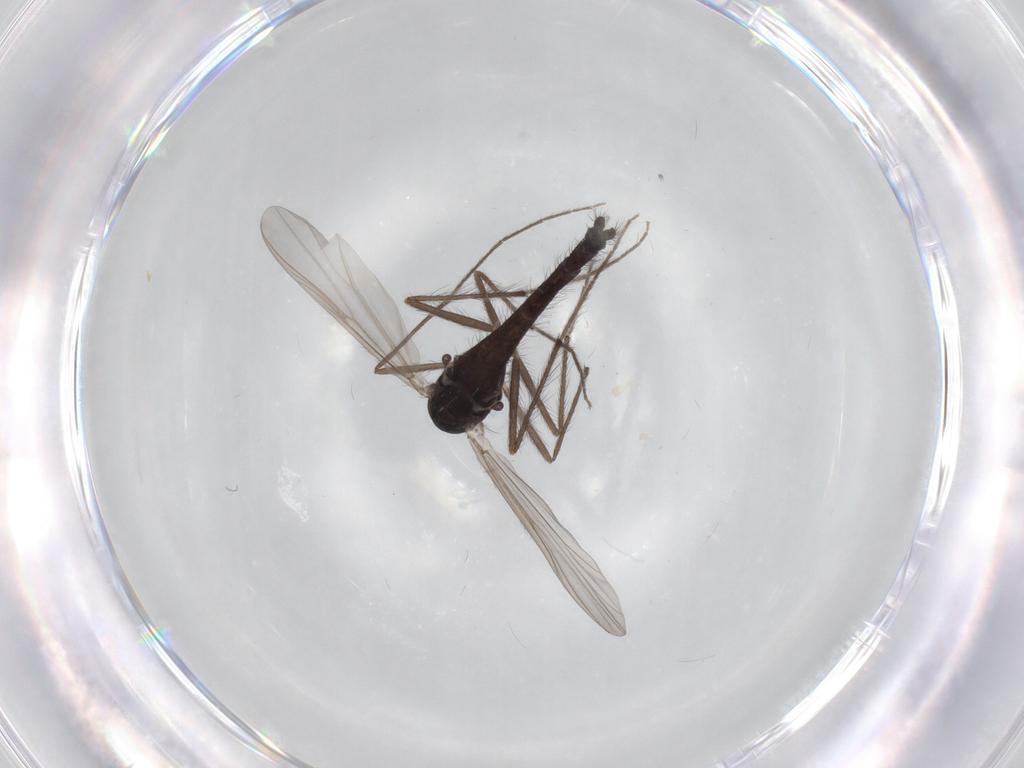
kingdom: Animalia
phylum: Arthropoda
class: Insecta
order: Diptera
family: Chironomidae
